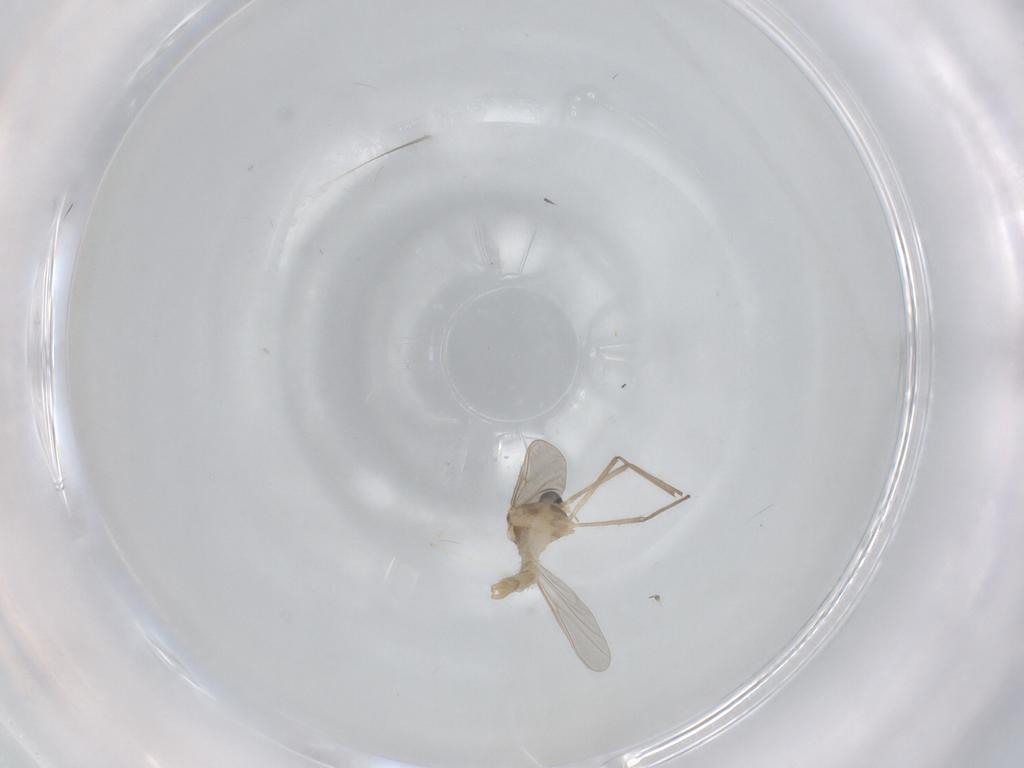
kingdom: Animalia
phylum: Arthropoda
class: Insecta
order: Diptera
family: Chironomidae
